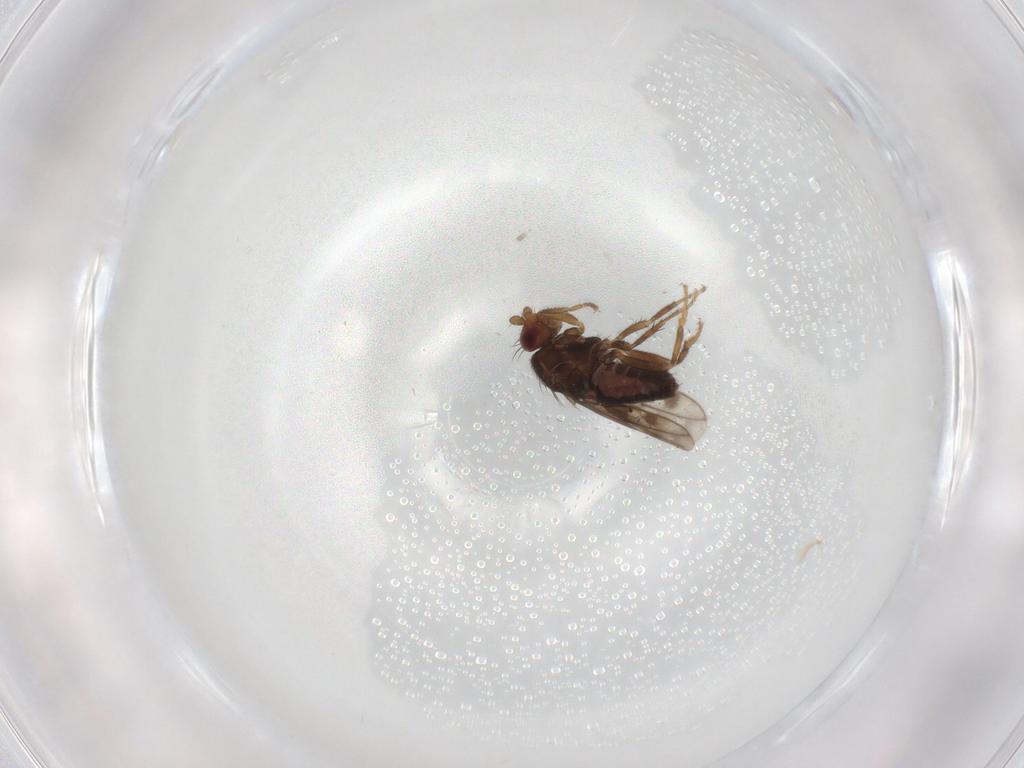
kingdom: Animalia
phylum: Arthropoda
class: Insecta
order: Diptera
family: Sphaeroceridae
